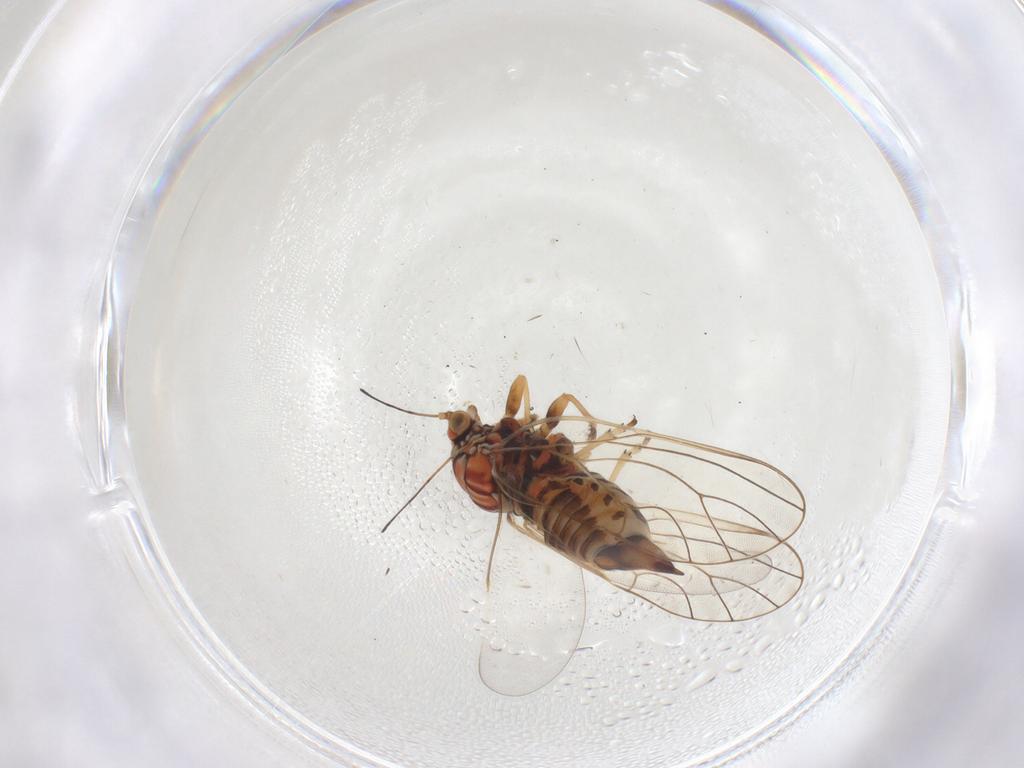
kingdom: Animalia
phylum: Arthropoda
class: Insecta
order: Hemiptera
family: Psyllidae
